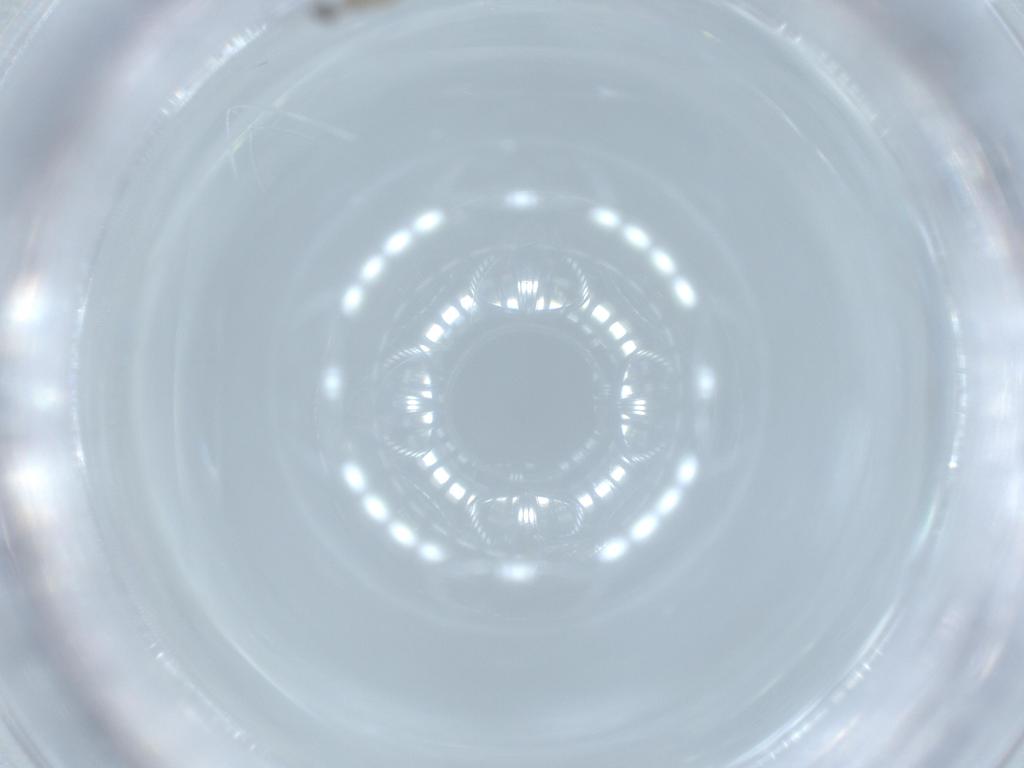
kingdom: Animalia
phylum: Arthropoda
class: Insecta
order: Diptera
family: Cecidomyiidae
